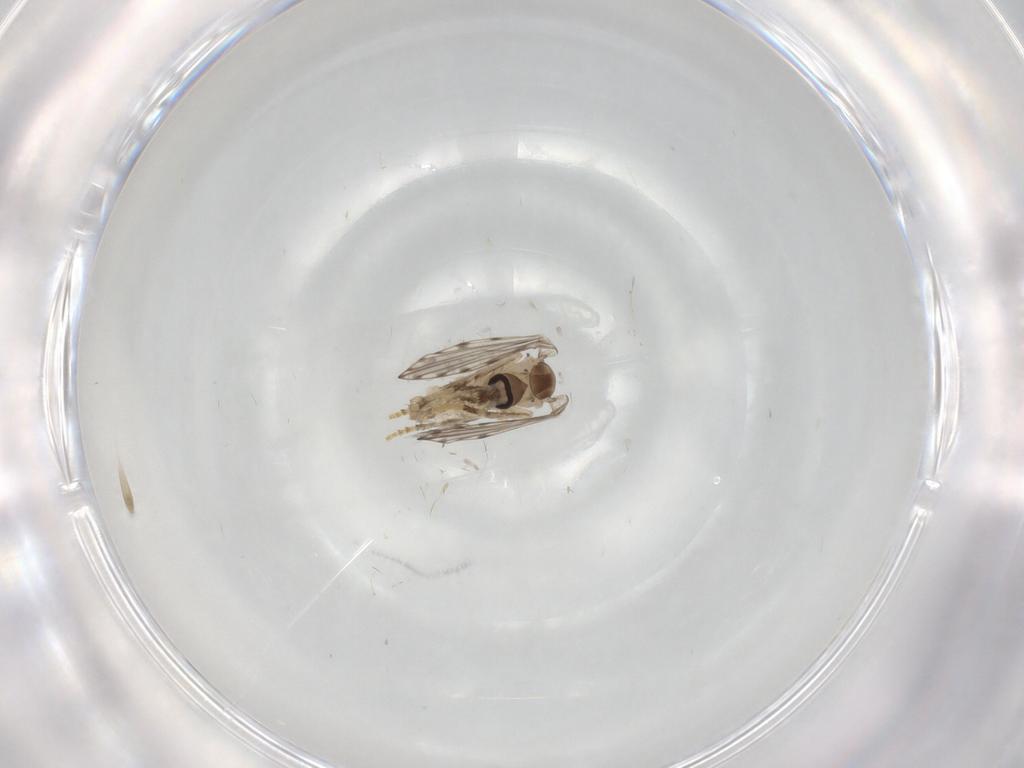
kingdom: Animalia
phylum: Arthropoda
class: Insecta
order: Diptera
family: Psychodidae
